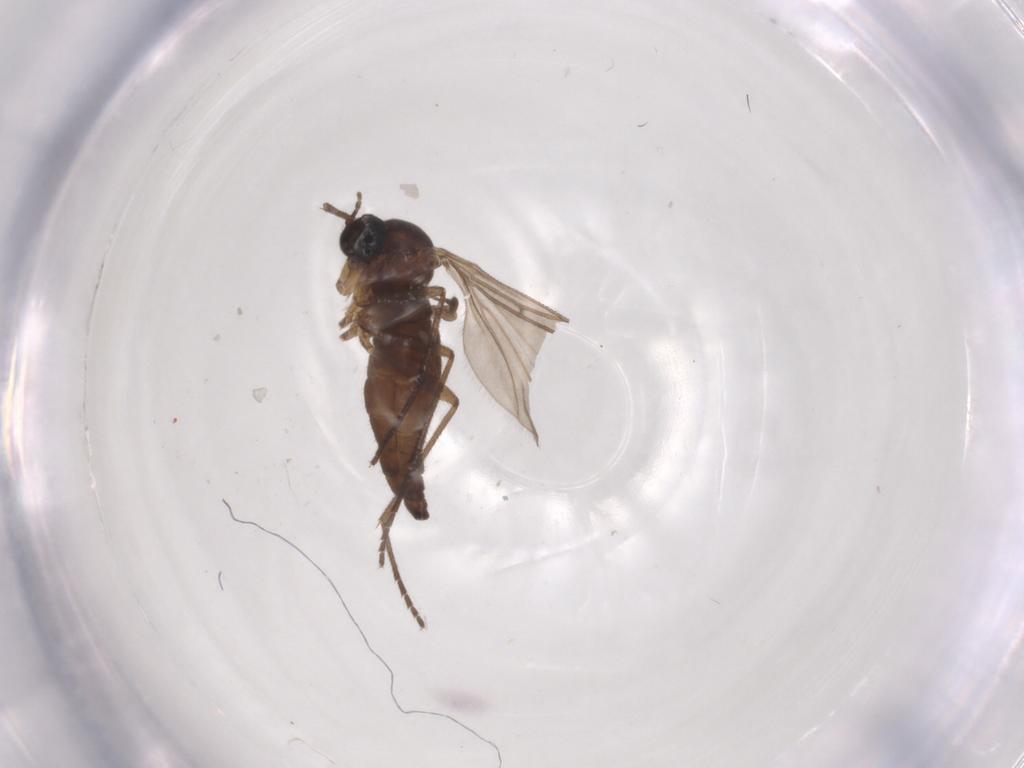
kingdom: Animalia
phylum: Arthropoda
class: Insecta
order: Diptera
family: Sciaridae
